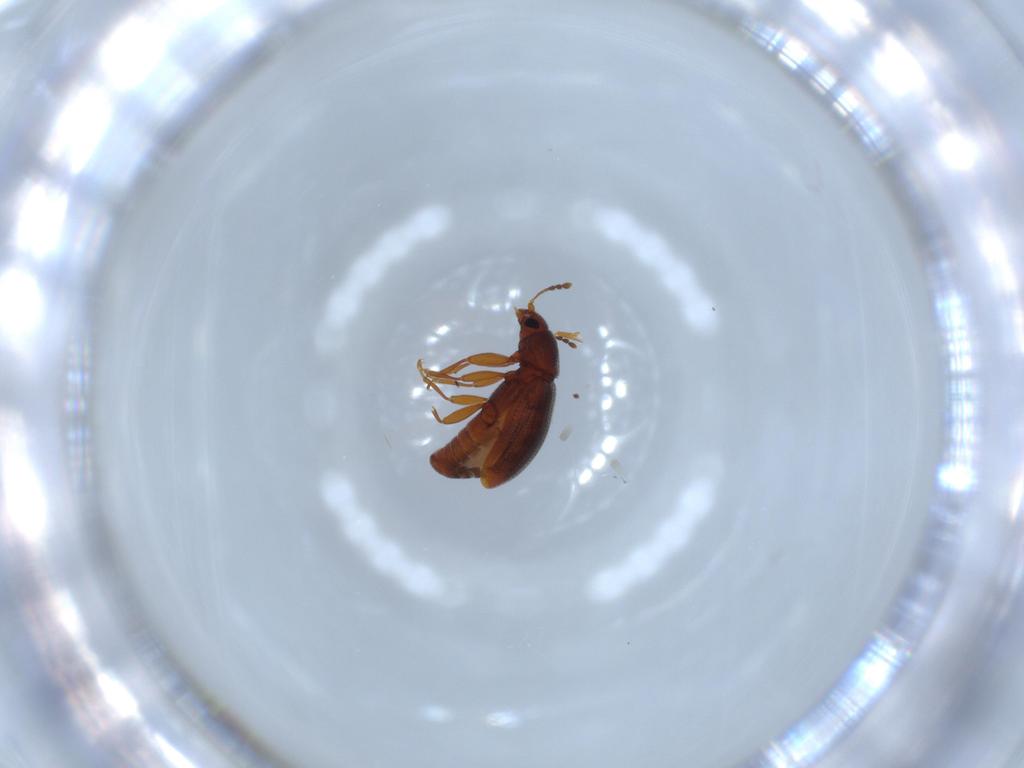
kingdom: Animalia
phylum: Arthropoda
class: Insecta
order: Coleoptera
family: Latridiidae
